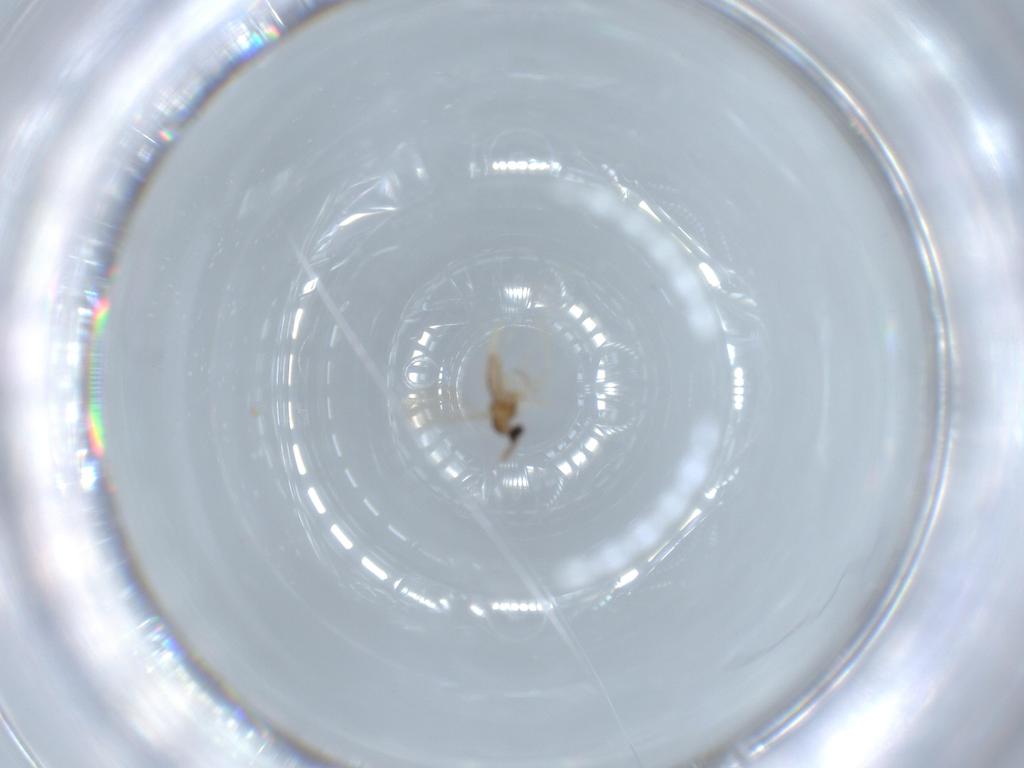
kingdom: Animalia
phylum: Arthropoda
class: Insecta
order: Diptera
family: Cecidomyiidae
